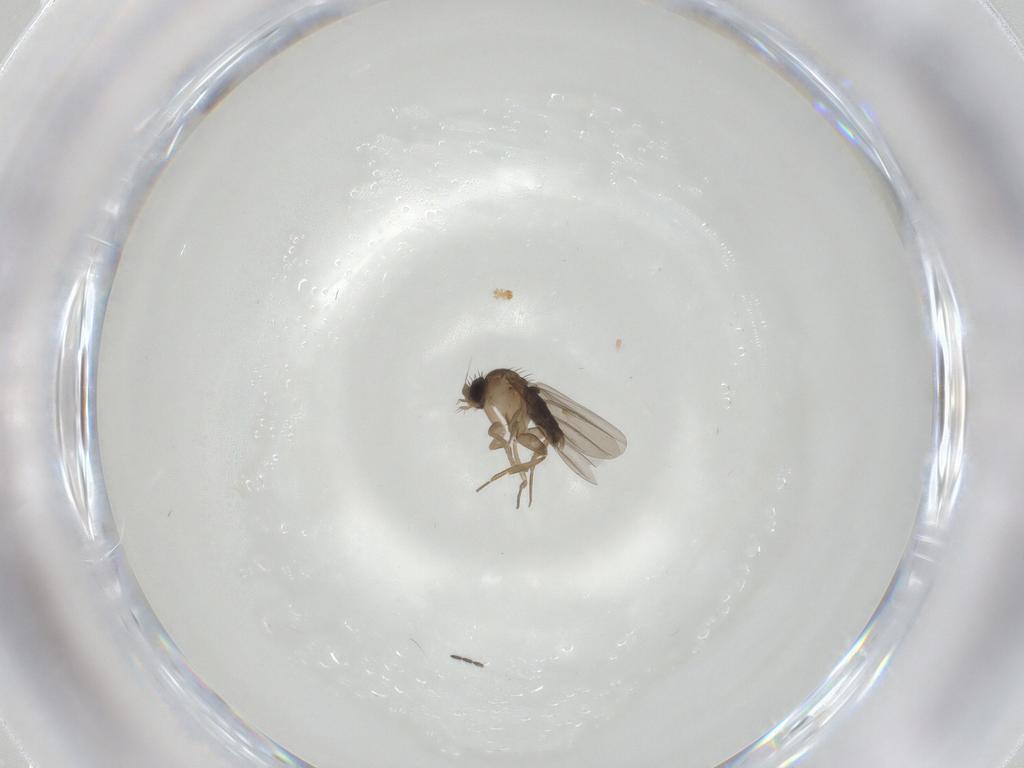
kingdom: Animalia
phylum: Arthropoda
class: Insecta
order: Diptera
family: Phoridae
